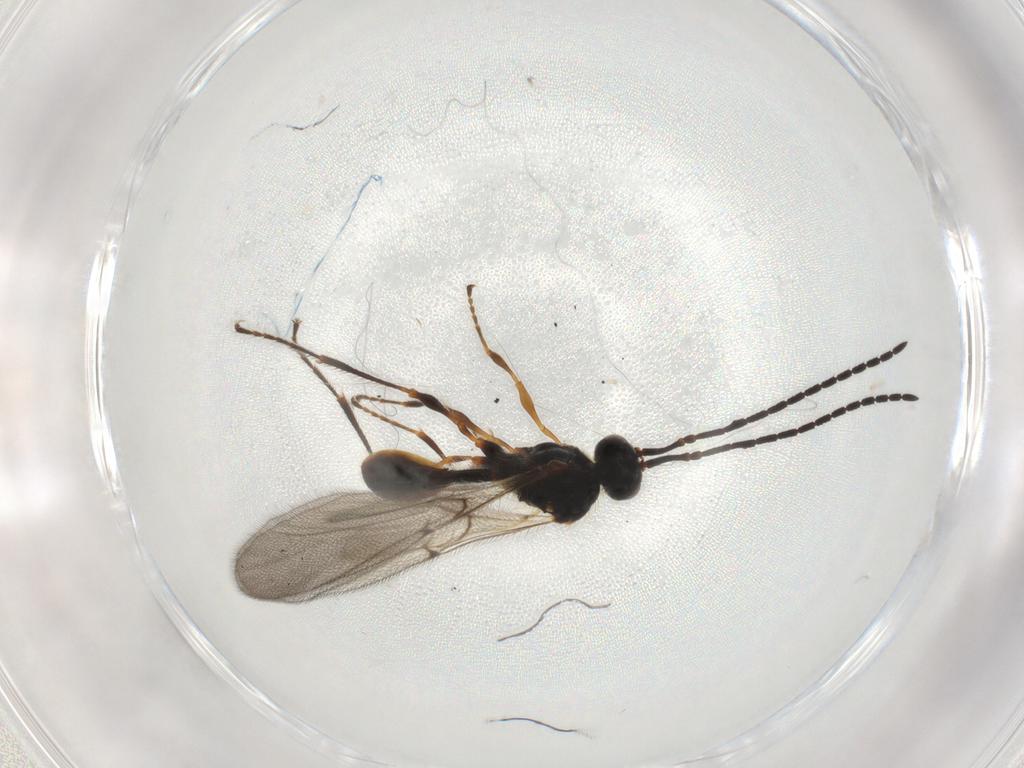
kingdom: Animalia
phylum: Arthropoda
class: Insecta
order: Hymenoptera
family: Diapriidae
